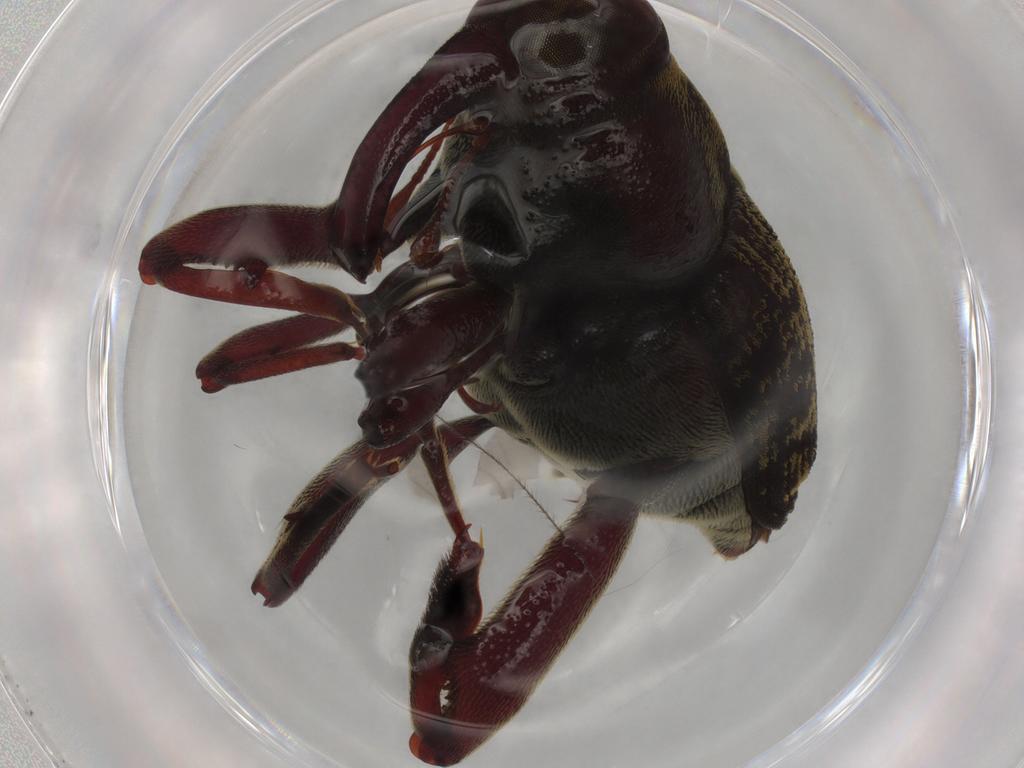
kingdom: Animalia
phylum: Arthropoda
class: Insecta
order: Coleoptera
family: Curculionidae
